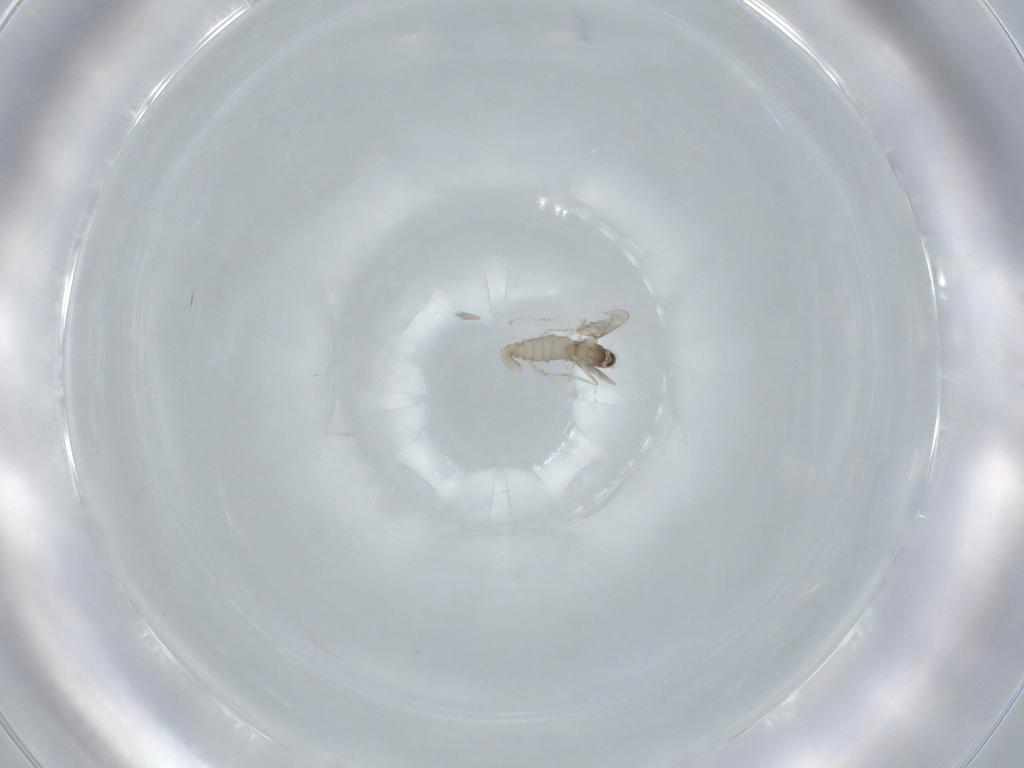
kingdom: Animalia
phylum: Arthropoda
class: Insecta
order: Diptera
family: Cecidomyiidae
